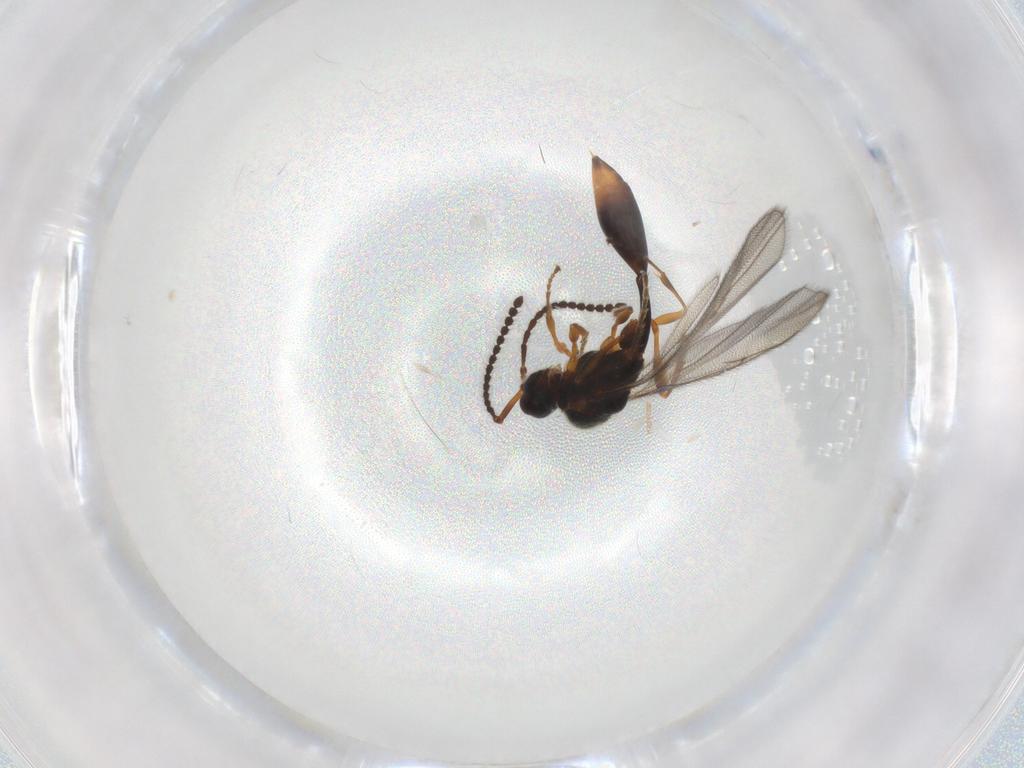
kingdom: Animalia
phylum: Arthropoda
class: Insecta
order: Hymenoptera
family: Diapriidae
